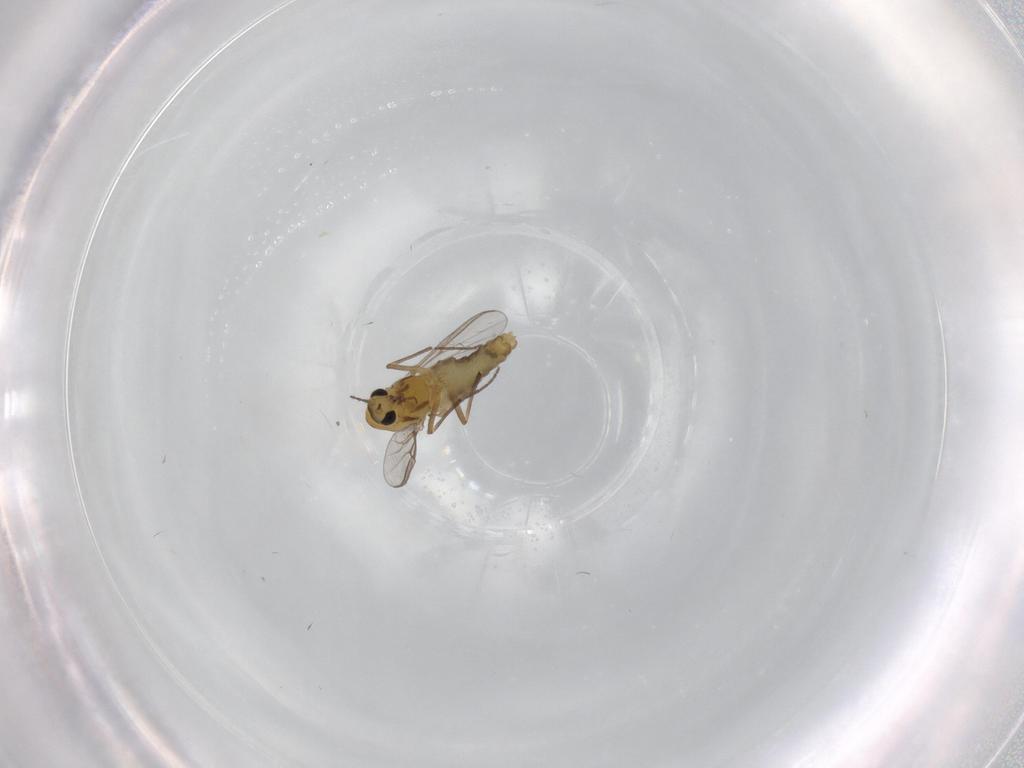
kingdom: Animalia
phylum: Arthropoda
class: Insecta
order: Diptera
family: Chironomidae
